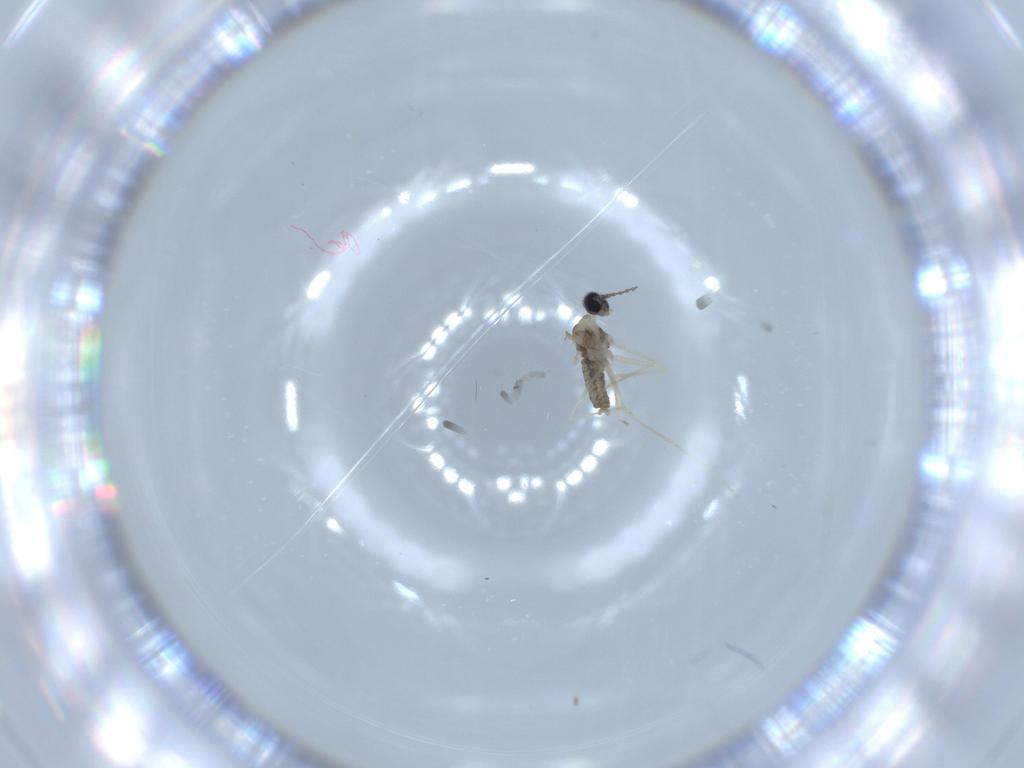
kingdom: Animalia
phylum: Arthropoda
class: Insecta
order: Diptera
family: Cecidomyiidae
